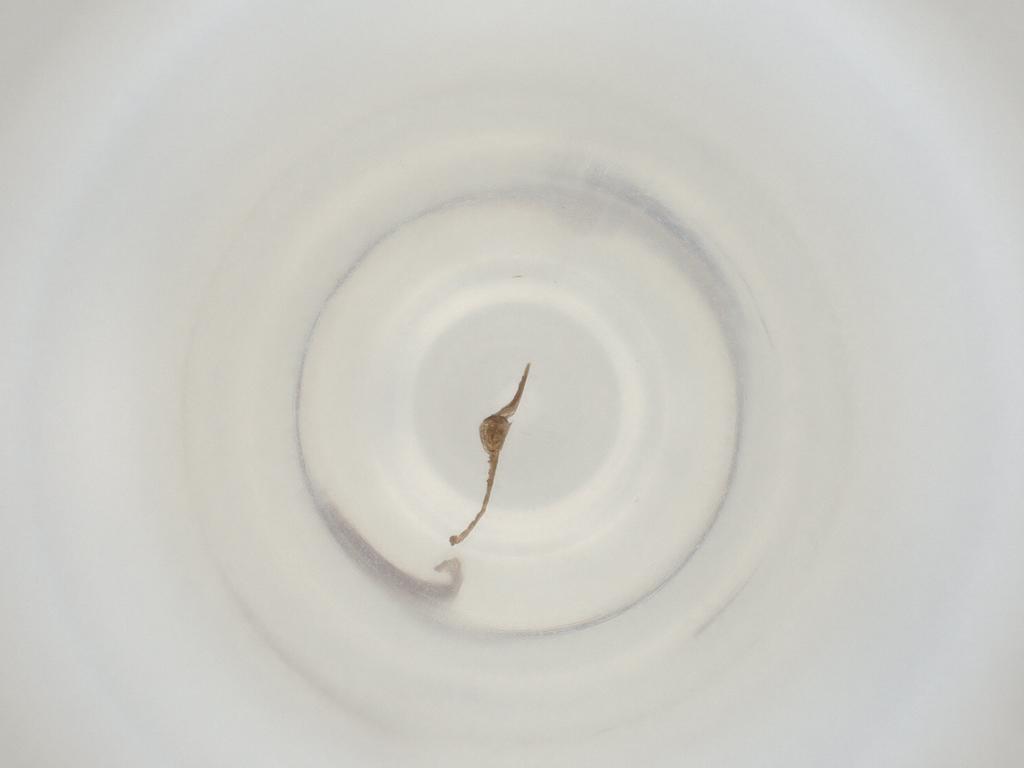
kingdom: Animalia
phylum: Arthropoda
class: Insecta
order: Diptera
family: Cecidomyiidae
